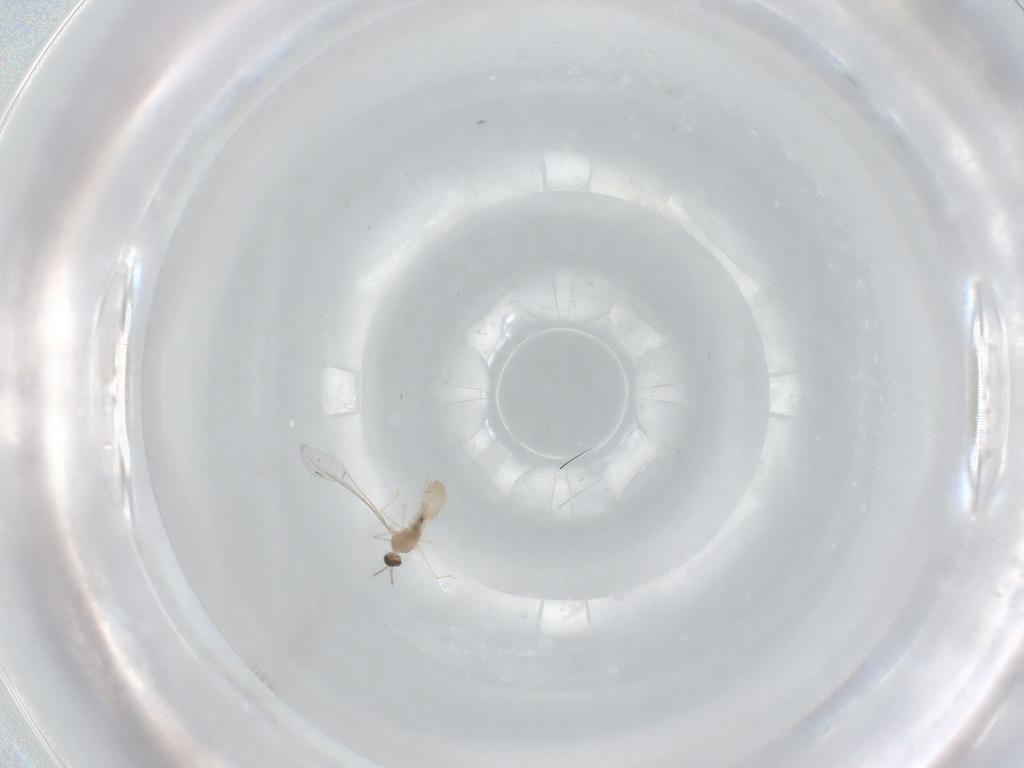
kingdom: Animalia
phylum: Arthropoda
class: Insecta
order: Diptera
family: Cecidomyiidae
